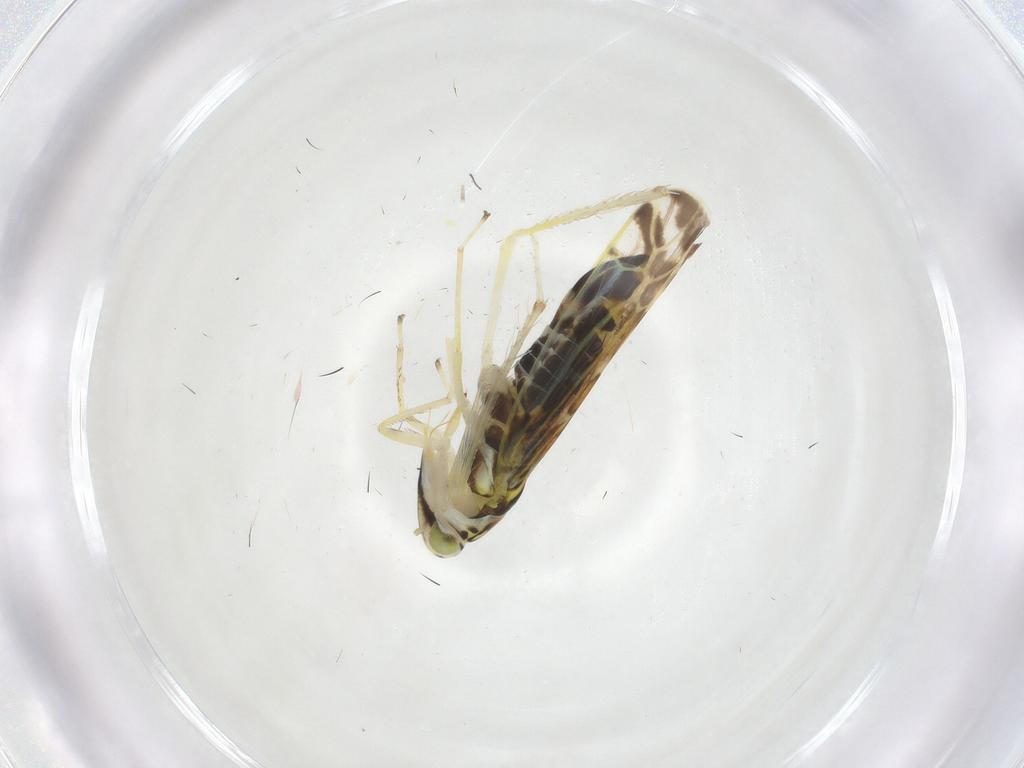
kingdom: Animalia
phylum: Arthropoda
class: Insecta
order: Hemiptera
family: Cicadellidae
